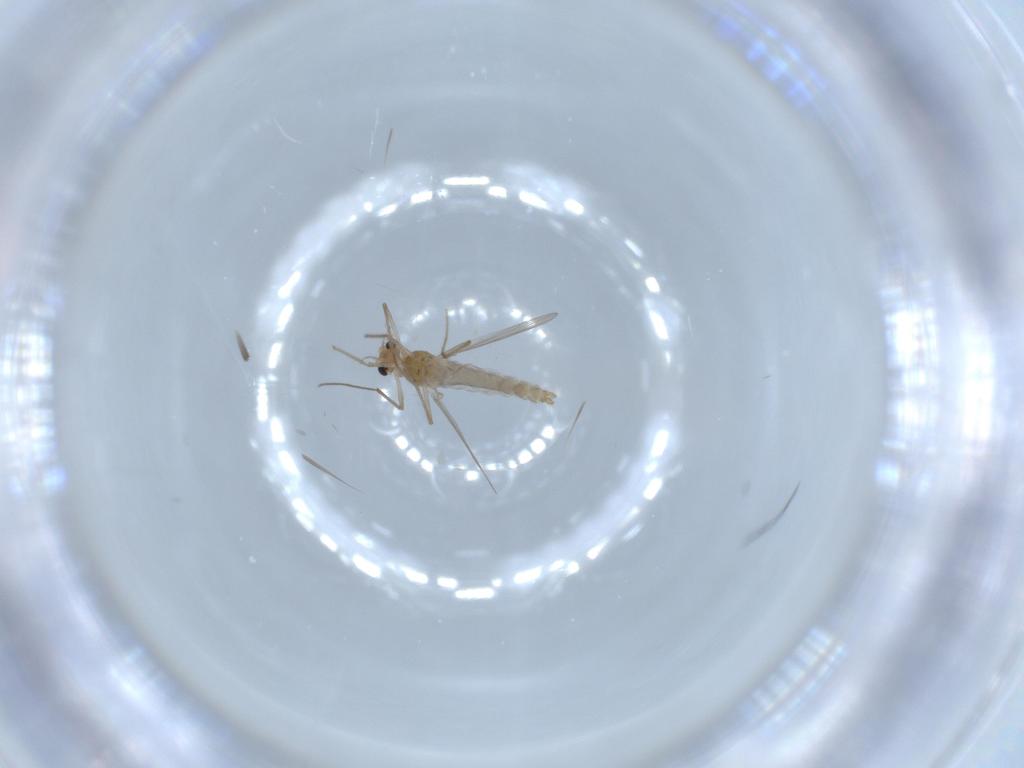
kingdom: Animalia
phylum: Arthropoda
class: Insecta
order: Diptera
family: Chironomidae
